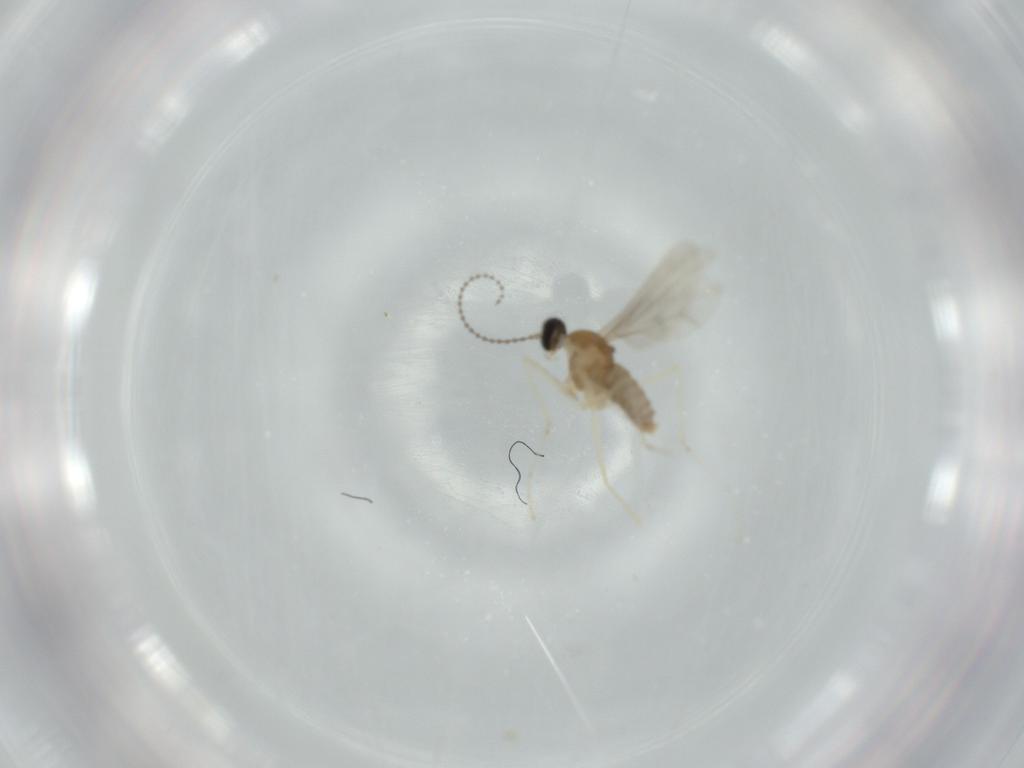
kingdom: Animalia
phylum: Arthropoda
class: Insecta
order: Diptera
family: Cecidomyiidae
